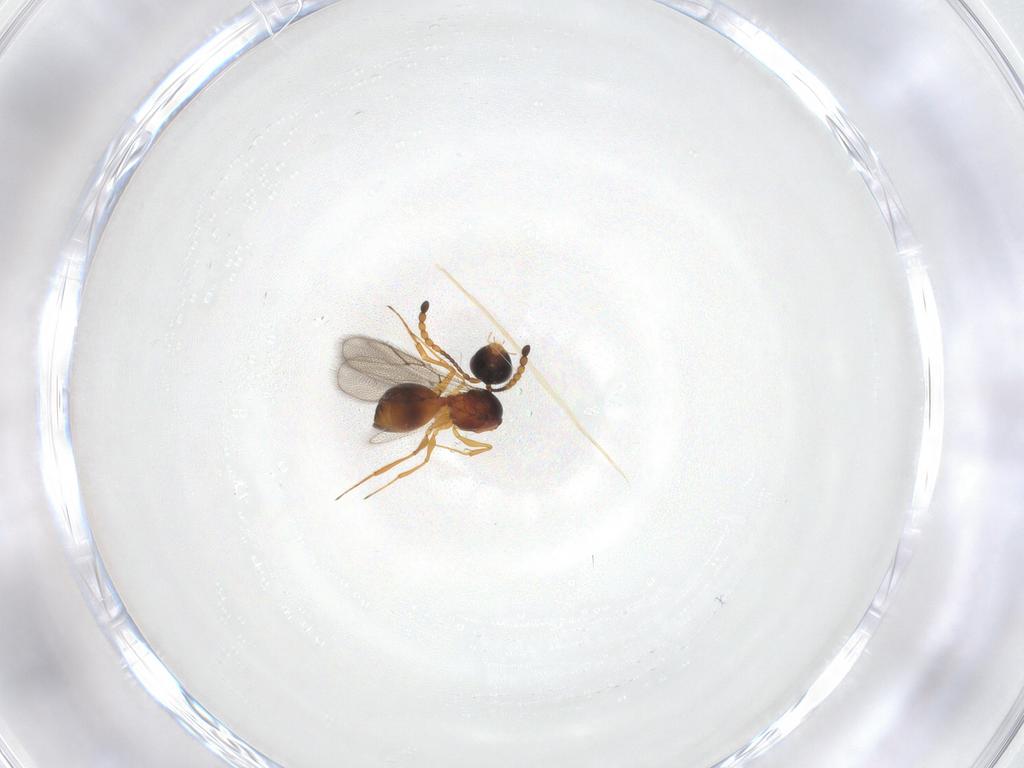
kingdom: Animalia
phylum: Arthropoda
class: Insecta
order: Hymenoptera
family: Figitidae
